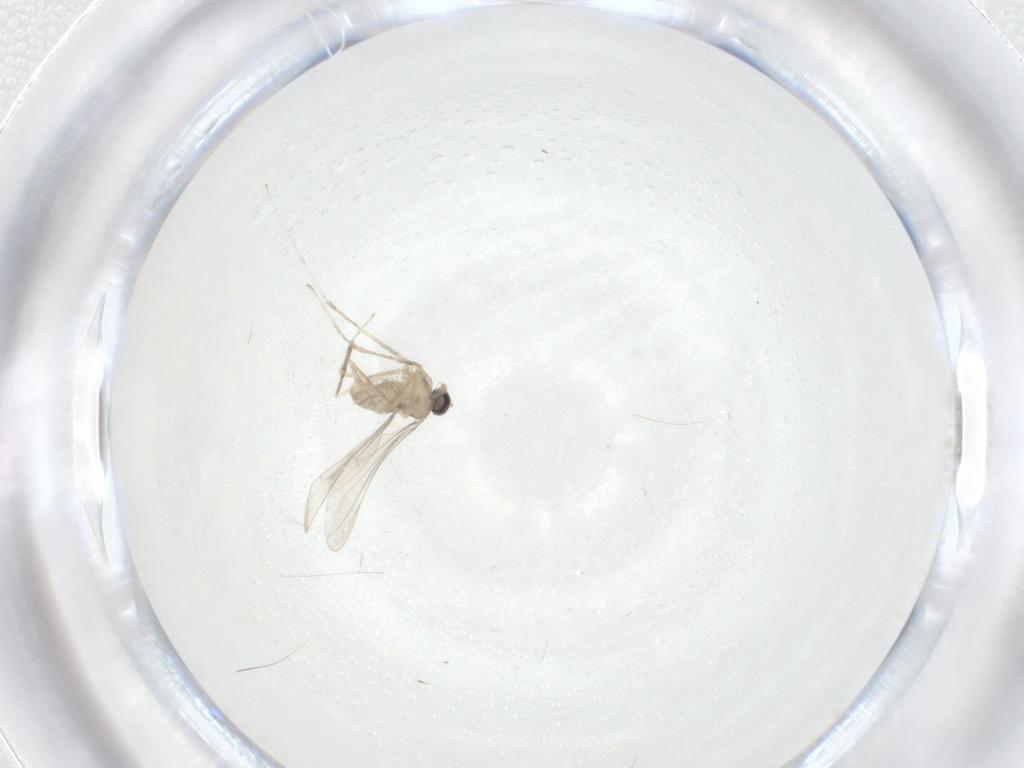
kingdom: Animalia
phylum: Arthropoda
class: Insecta
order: Diptera
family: Cecidomyiidae
